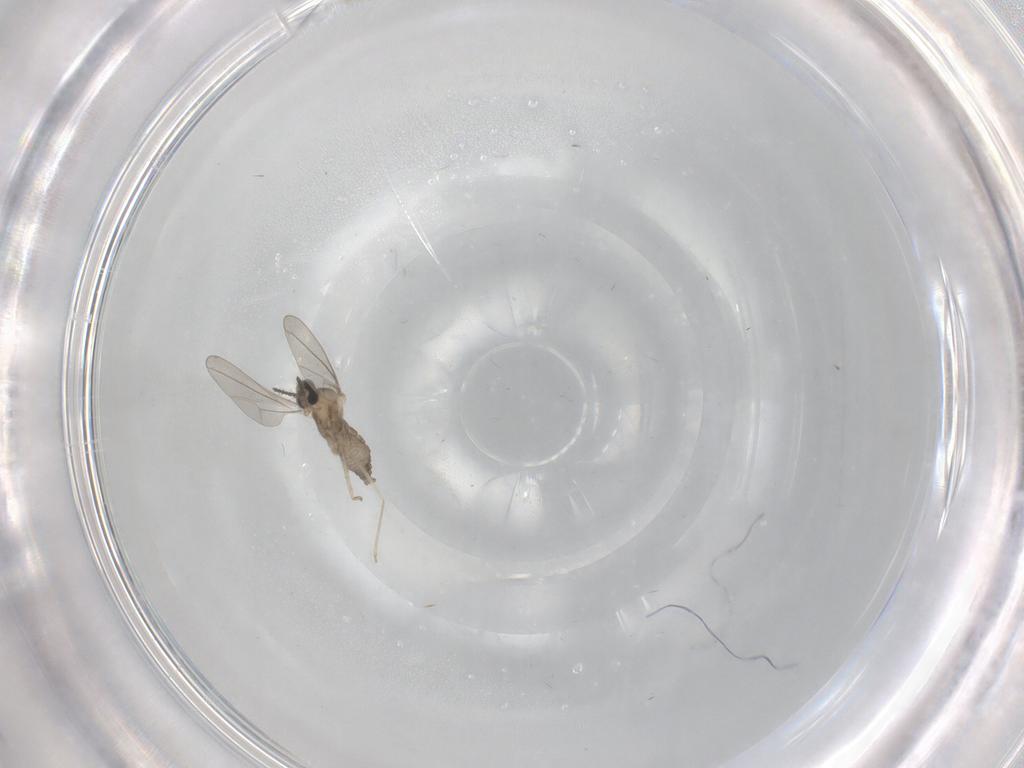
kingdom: Animalia
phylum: Arthropoda
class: Insecta
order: Diptera
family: Cecidomyiidae
